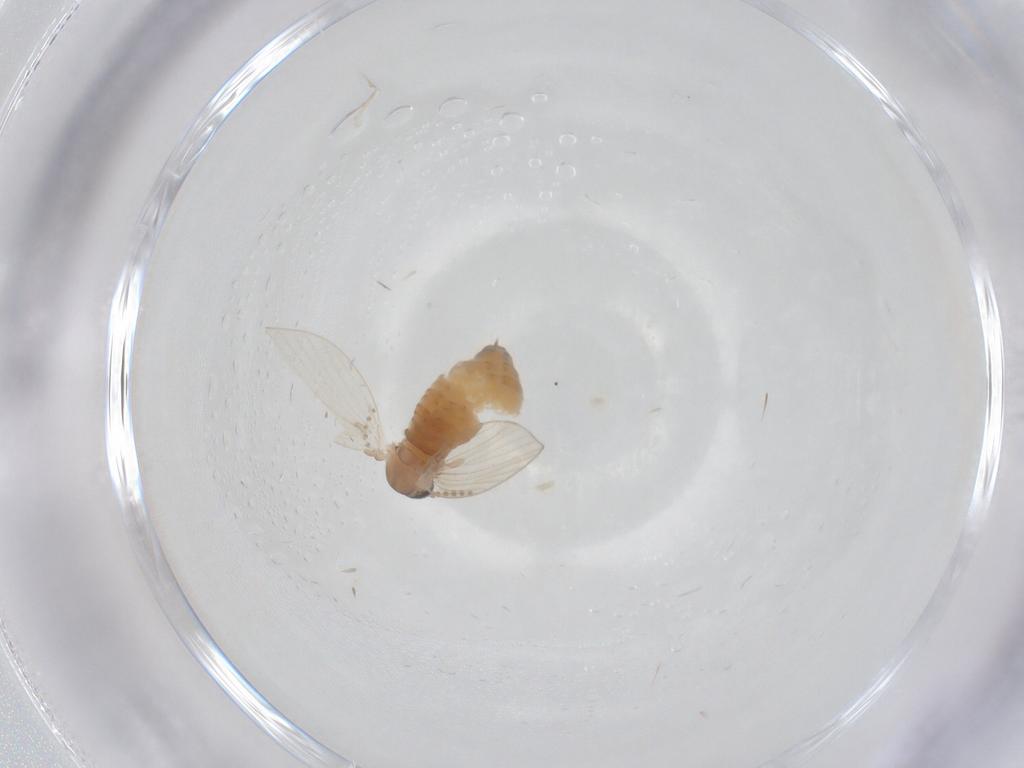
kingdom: Animalia
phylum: Arthropoda
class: Insecta
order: Diptera
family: Psychodidae
